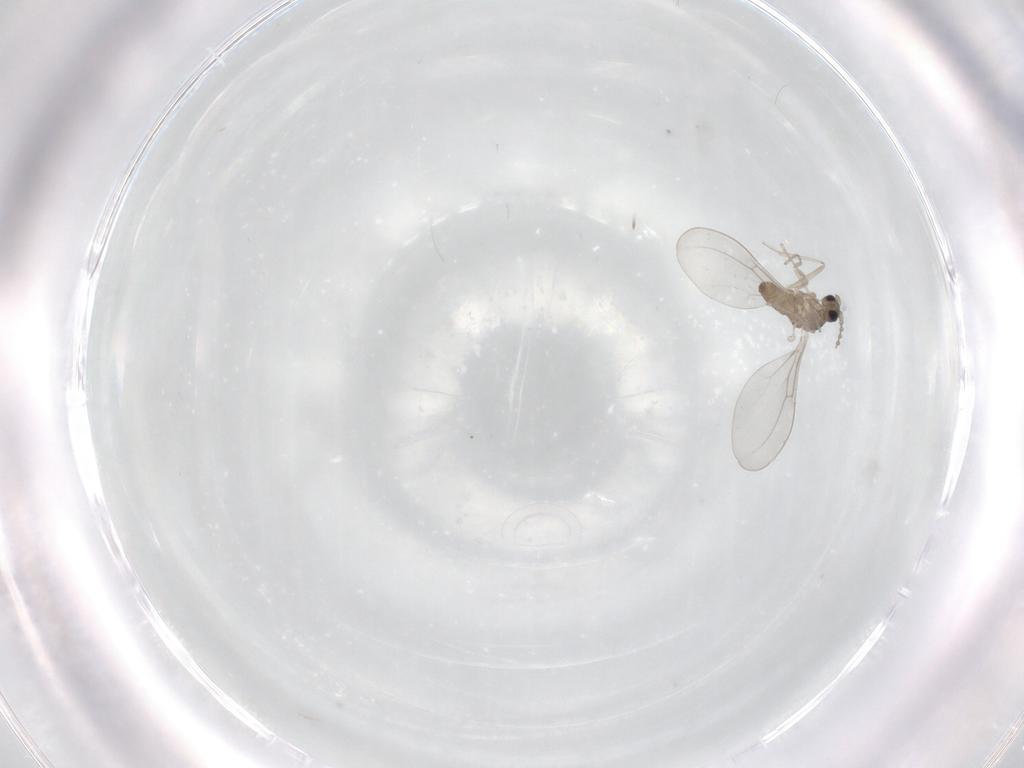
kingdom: Animalia
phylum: Arthropoda
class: Insecta
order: Diptera
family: Cecidomyiidae
